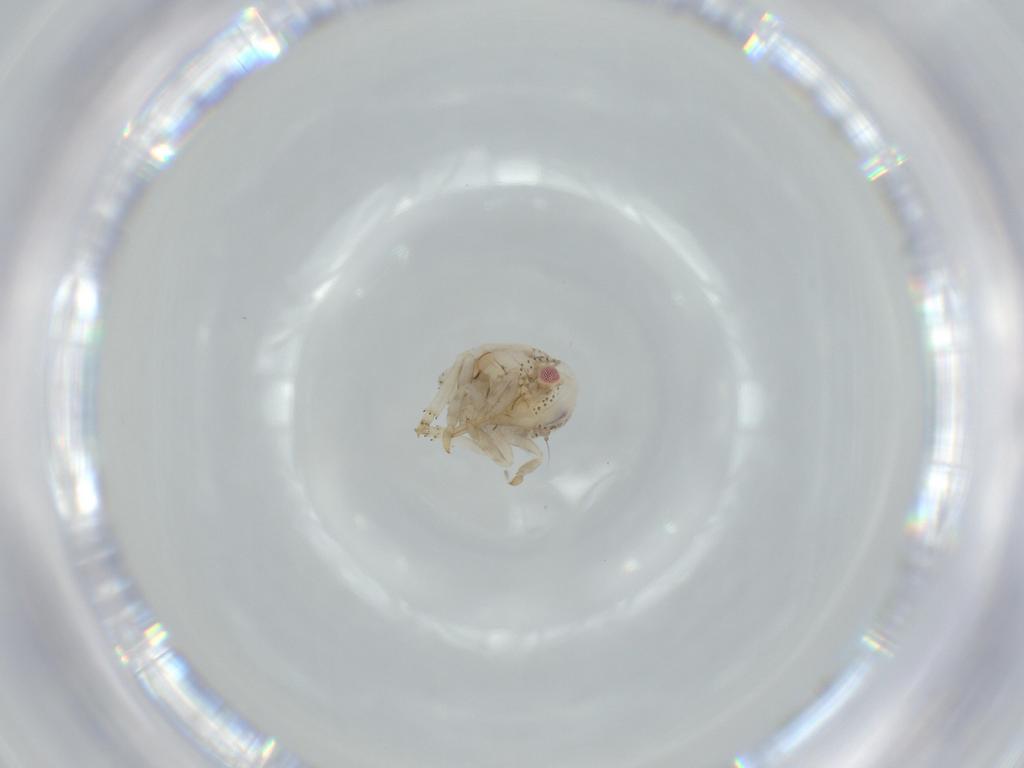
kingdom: Animalia
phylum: Arthropoda
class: Insecta
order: Hemiptera
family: Acanaloniidae
